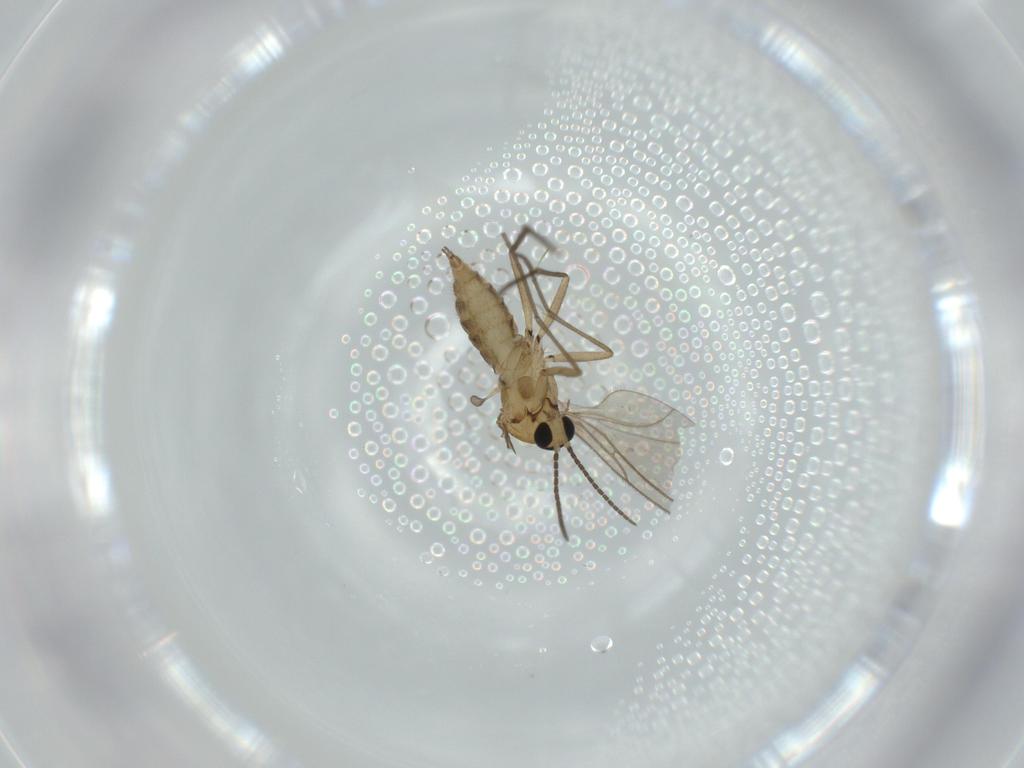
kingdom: Animalia
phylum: Arthropoda
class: Insecta
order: Diptera
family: Sciaridae
